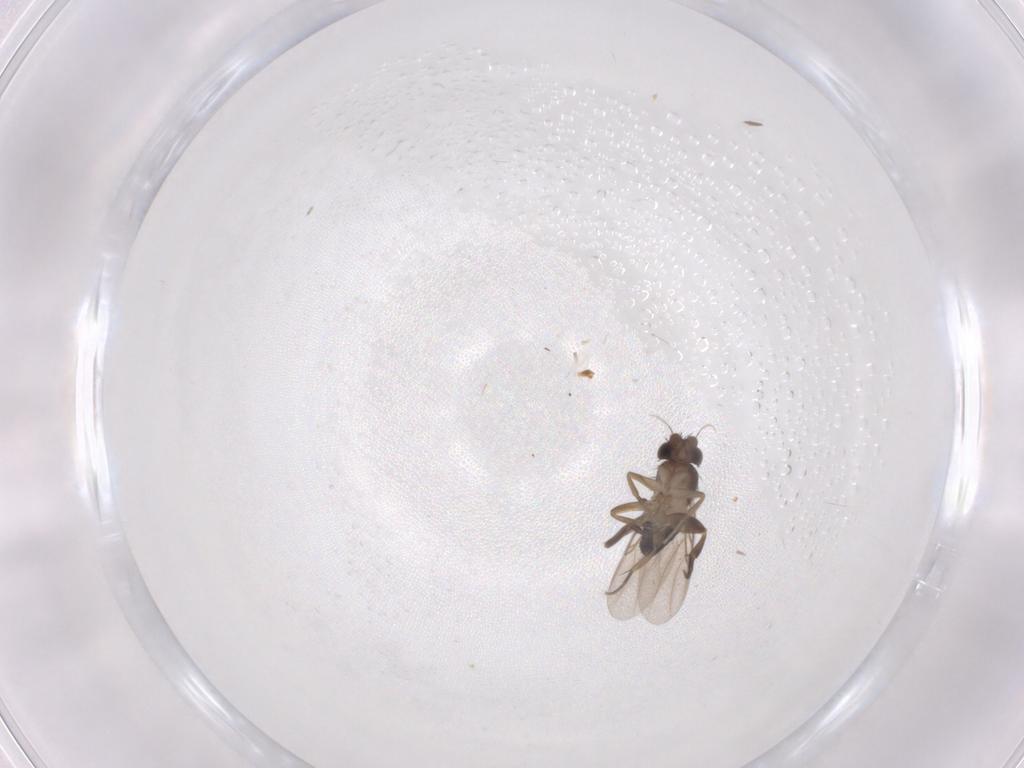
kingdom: Animalia
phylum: Arthropoda
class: Insecta
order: Diptera
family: Phoridae
